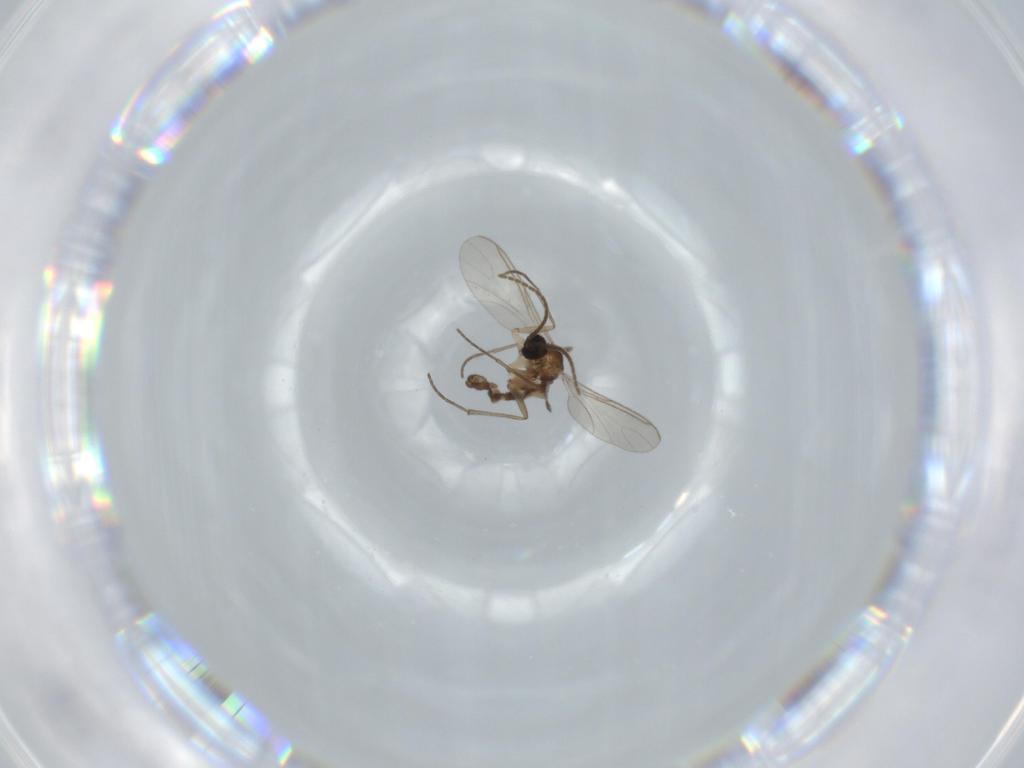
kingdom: Animalia
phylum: Arthropoda
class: Insecta
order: Diptera
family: Sciaridae
